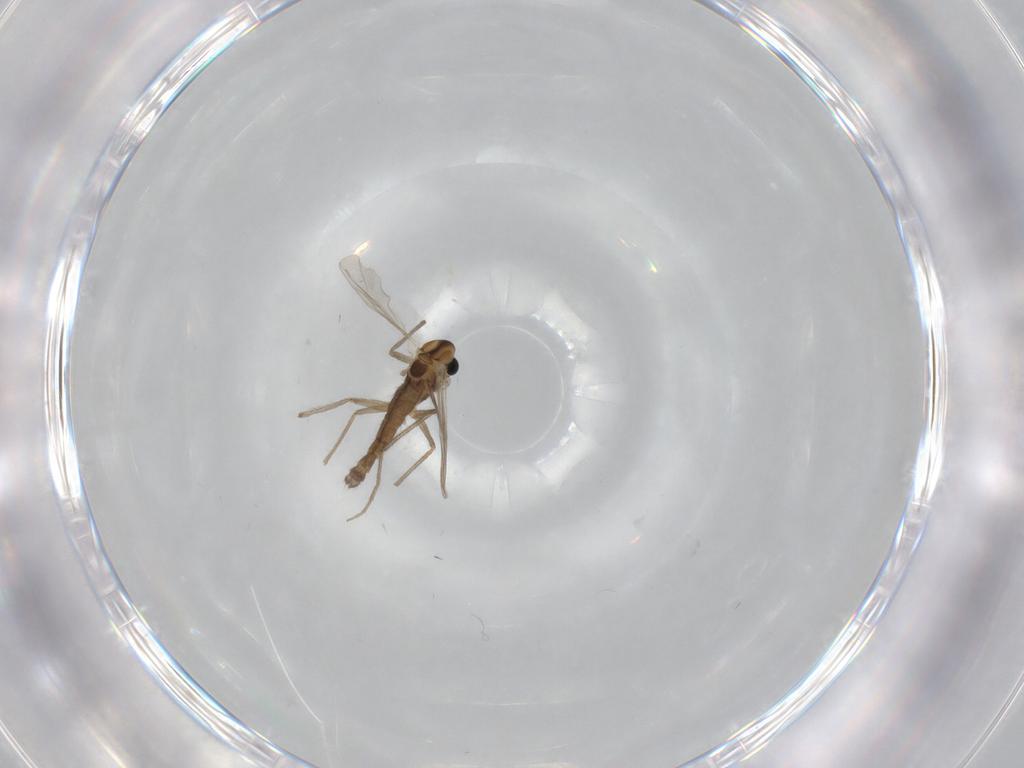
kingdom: Animalia
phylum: Arthropoda
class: Insecta
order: Diptera
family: Chironomidae
